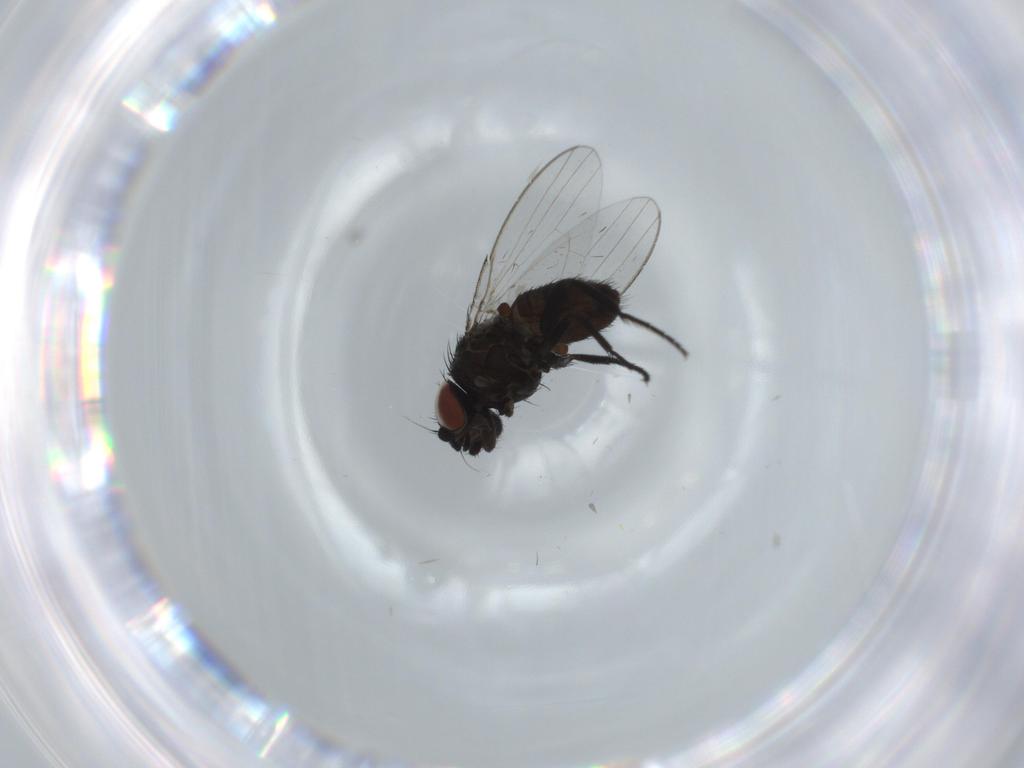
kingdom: Animalia
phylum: Arthropoda
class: Insecta
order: Diptera
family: Milichiidae
